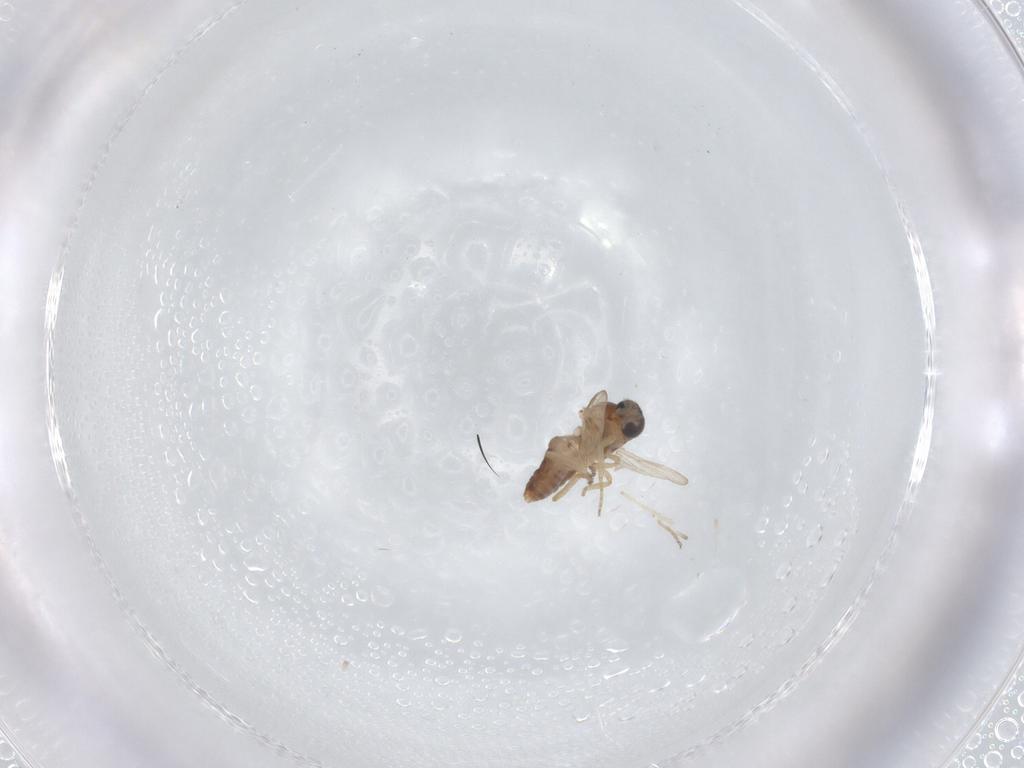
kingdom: Animalia
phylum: Arthropoda
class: Insecta
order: Diptera
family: Ceratopogonidae
